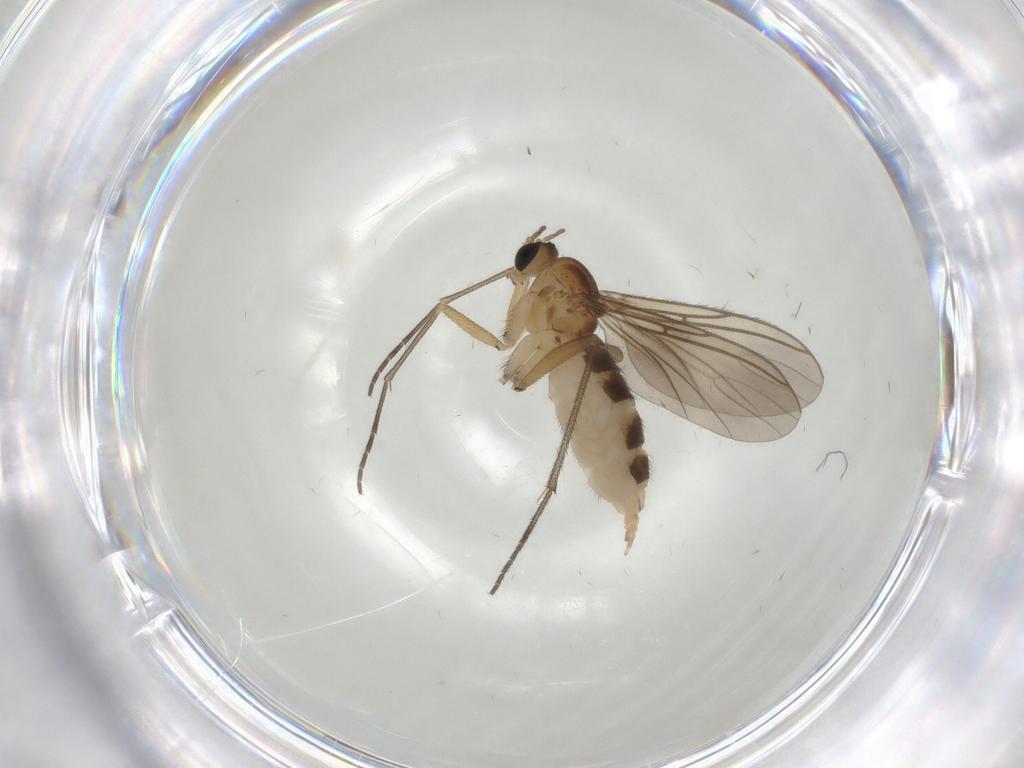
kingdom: Animalia
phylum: Arthropoda
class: Insecta
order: Diptera
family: Sciaridae
